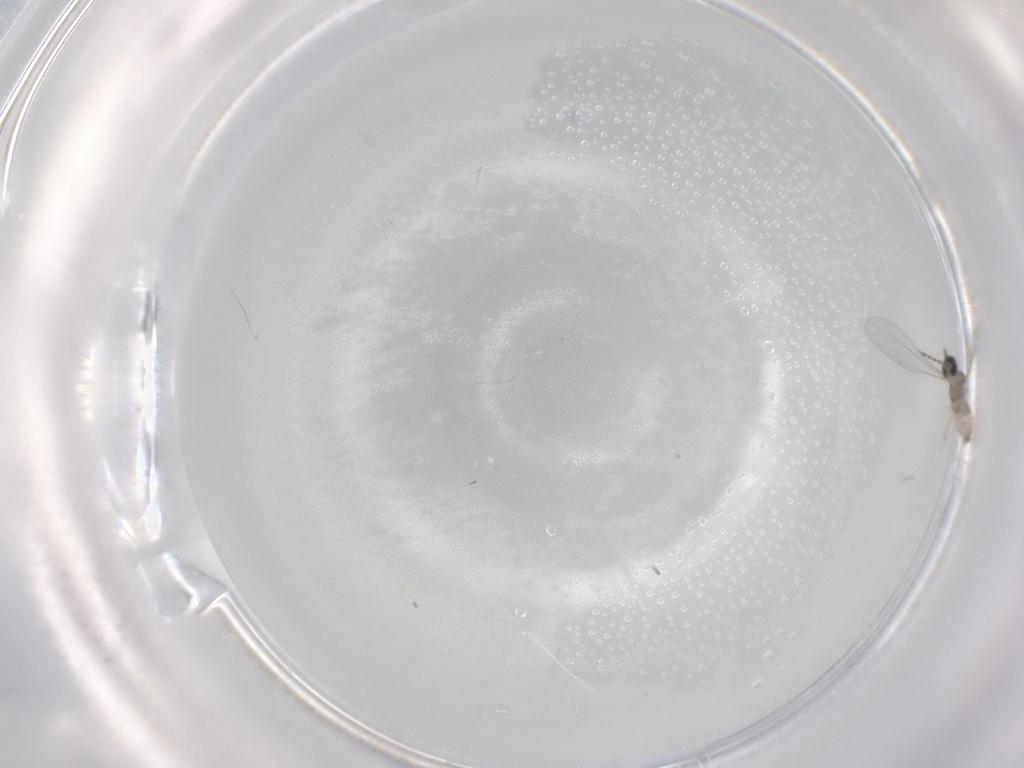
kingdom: Animalia
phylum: Arthropoda
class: Insecta
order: Diptera
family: Cecidomyiidae
